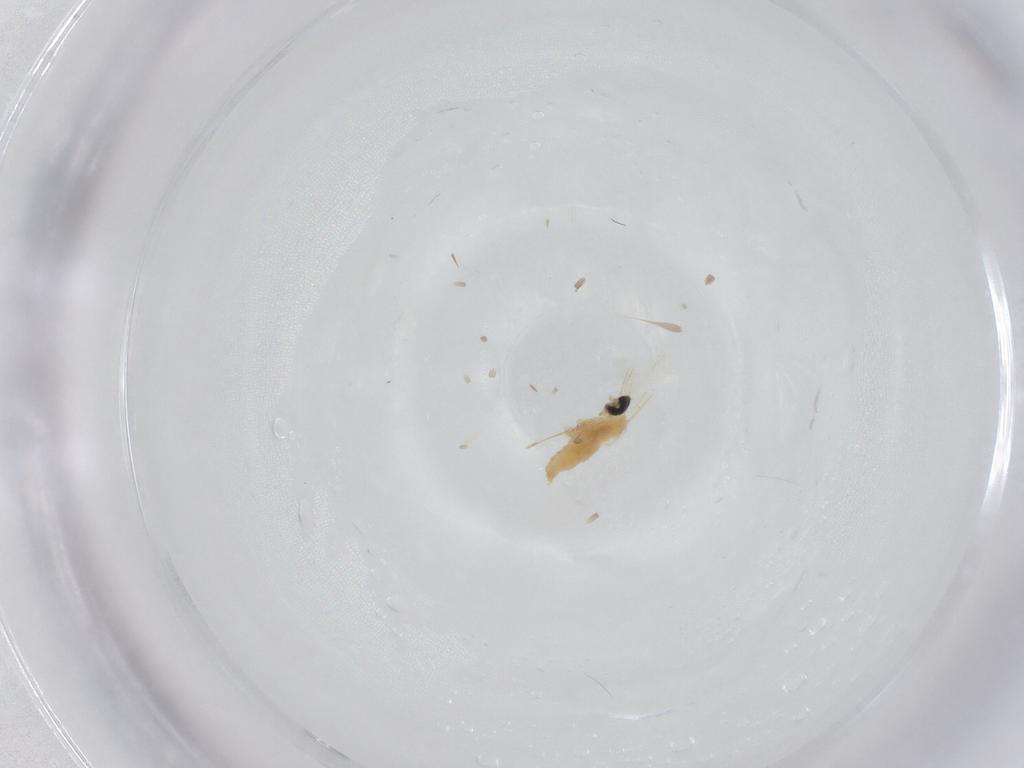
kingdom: Animalia
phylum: Arthropoda
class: Insecta
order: Diptera
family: Cecidomyiidae
